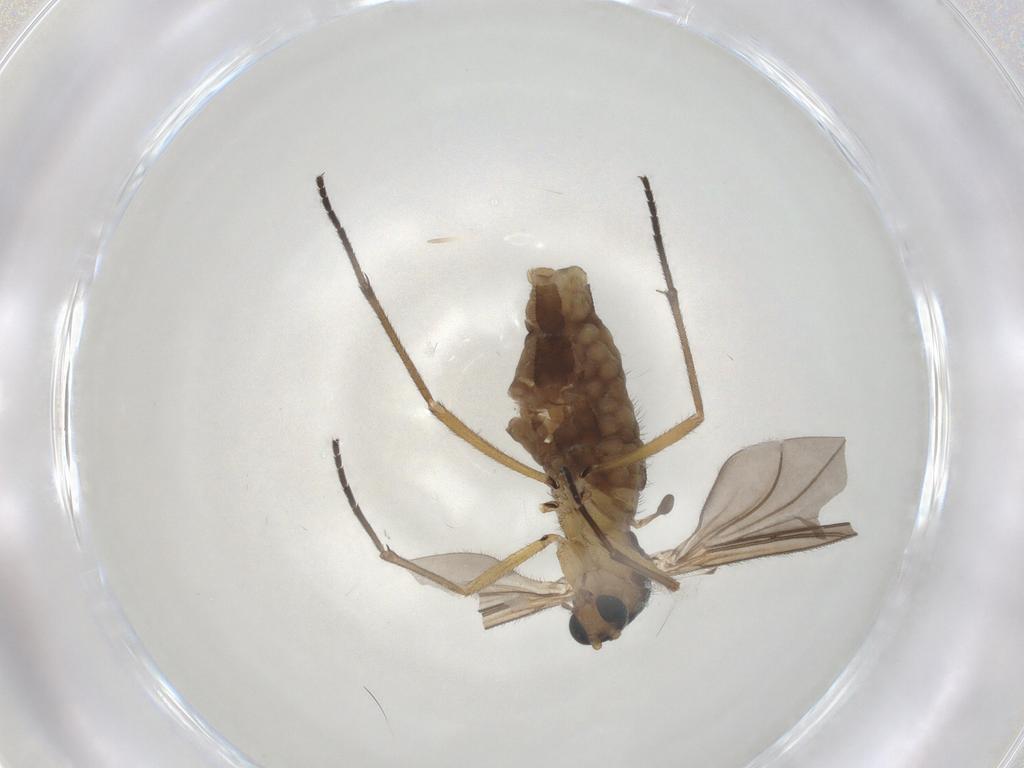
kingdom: Animalia
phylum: Arthropoda
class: Insecta
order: Diptera
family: Sciaridae
